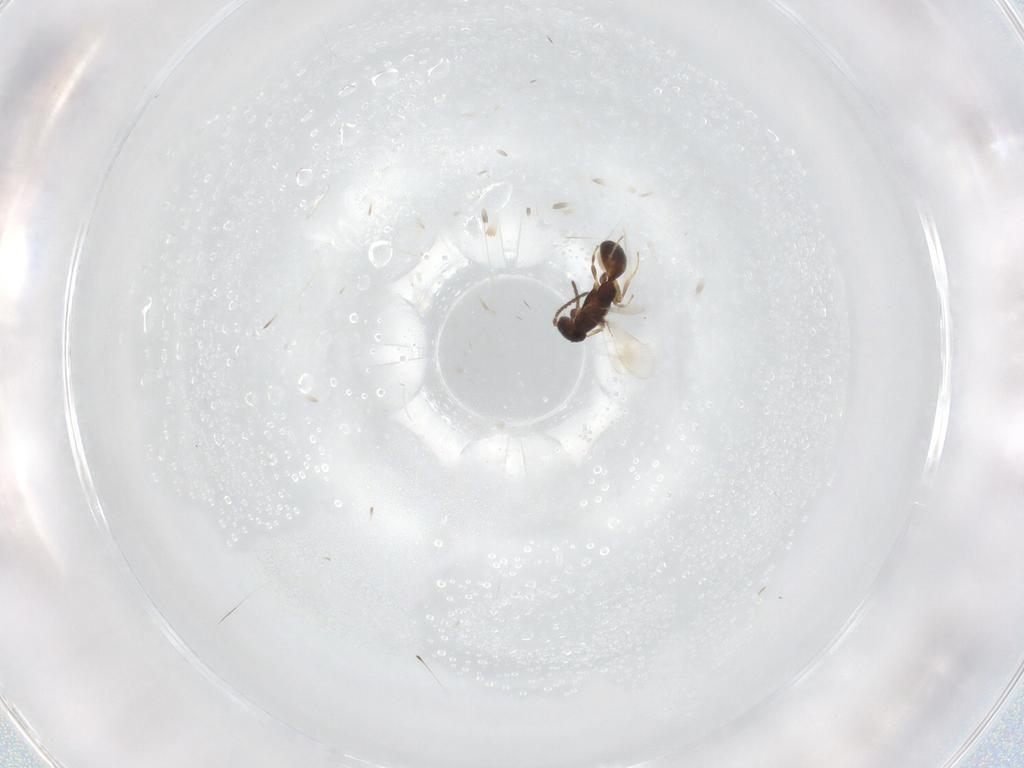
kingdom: Animalia
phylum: Arthropoda
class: Insecta
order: Hymenoptera
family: Bethylidae
